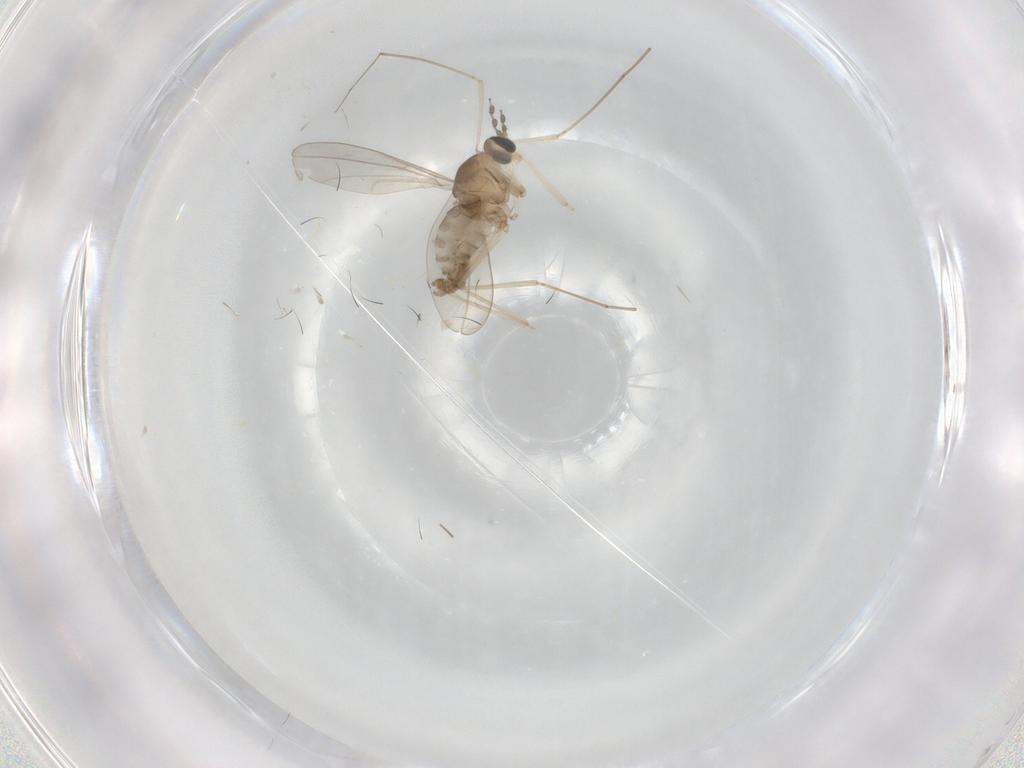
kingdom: Animalia
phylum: Arthropoda
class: Insecta
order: Diptera
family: Cecidomyiidae
